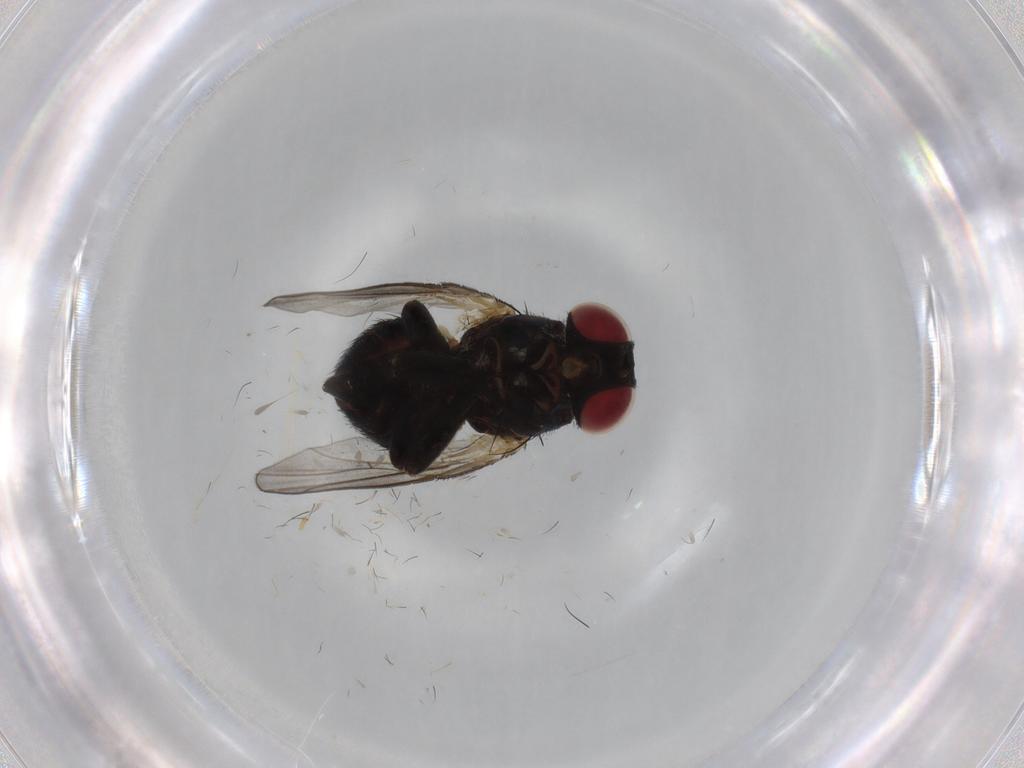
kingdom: Animalia
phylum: Arthropoda
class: Insecta
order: Diptera
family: Agromyzidae
